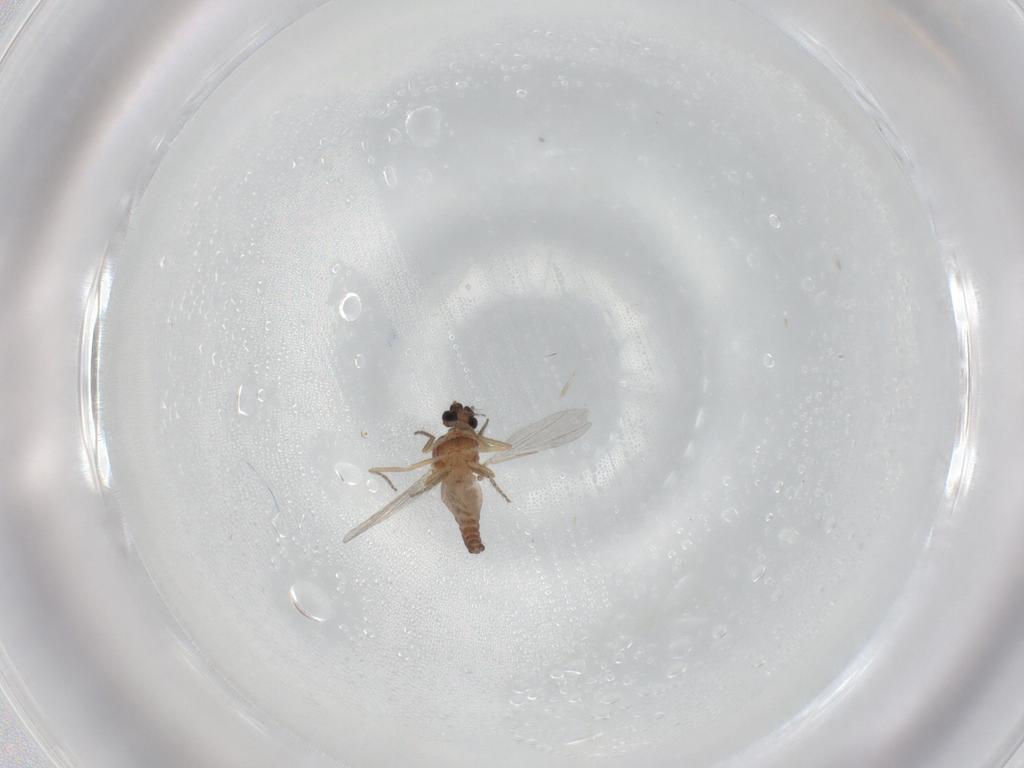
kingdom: Animalia
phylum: Arthropoda
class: Insecta
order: Diptera
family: Ceratopogonidae
